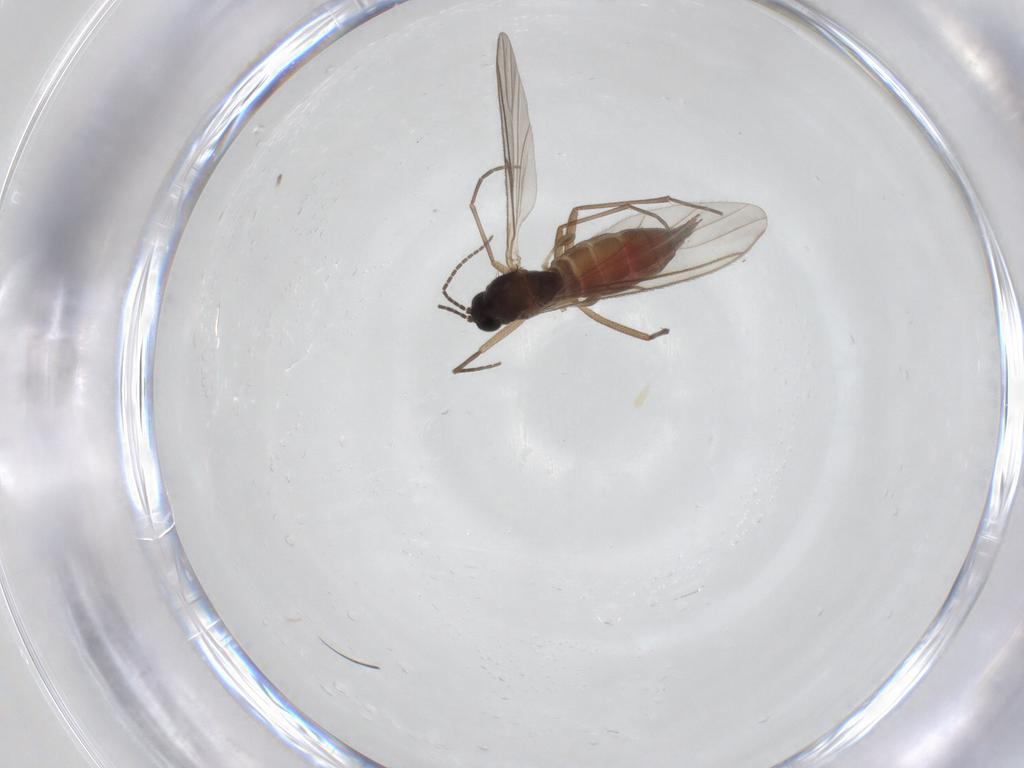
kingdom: Animalia
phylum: Arthropoda
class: Insecta
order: Diptera
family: Sciaridae
